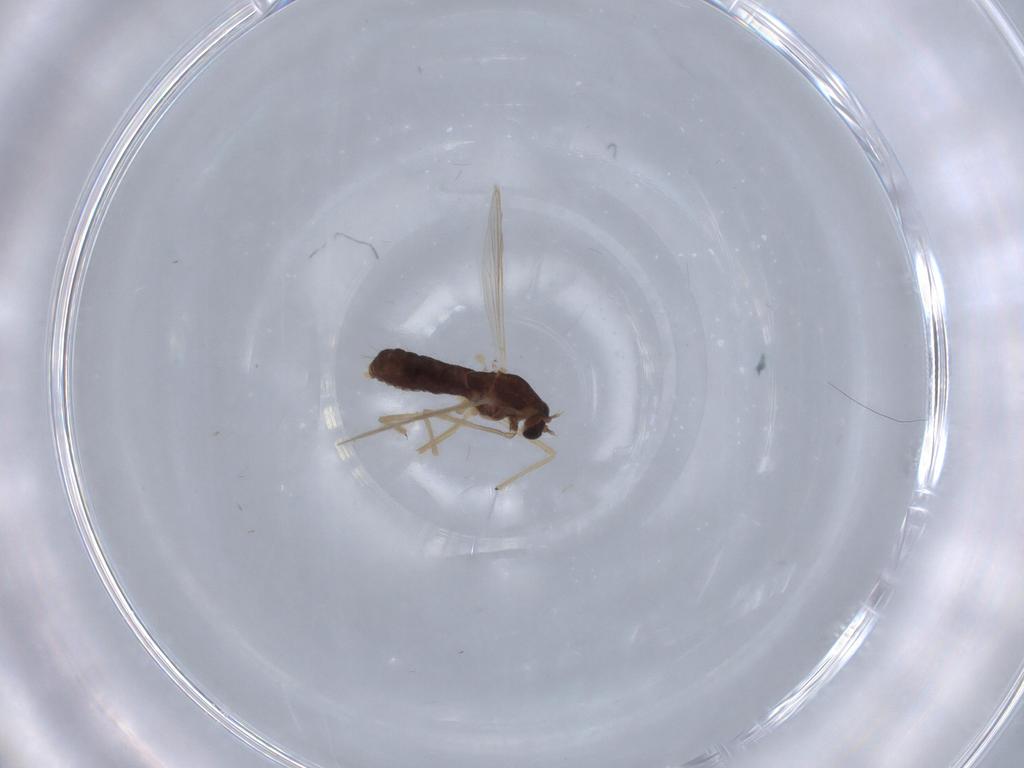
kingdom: Animalia
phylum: Arthropoda
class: Insecta
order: Diptera
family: Chironomidae
